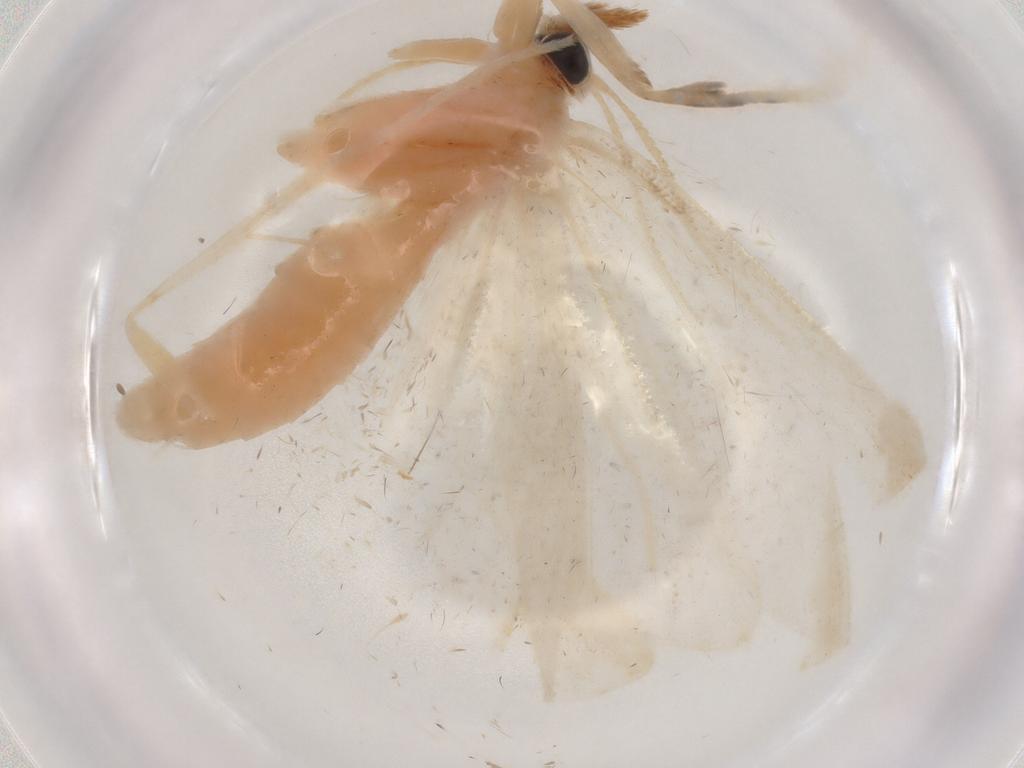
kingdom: Animalia
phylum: Arthropoda
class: Insecta
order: Lepidoptera
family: Crambidae
